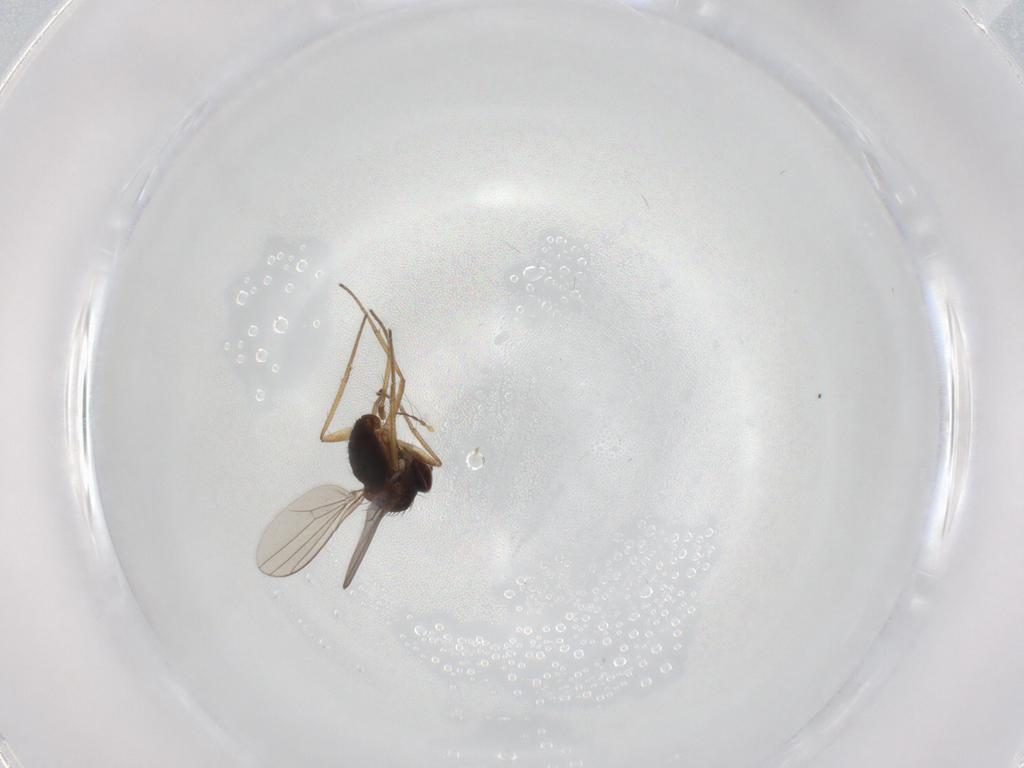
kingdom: Animalia
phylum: Arthropoda
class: Insecta
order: Diptera
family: Dolichopodidae
